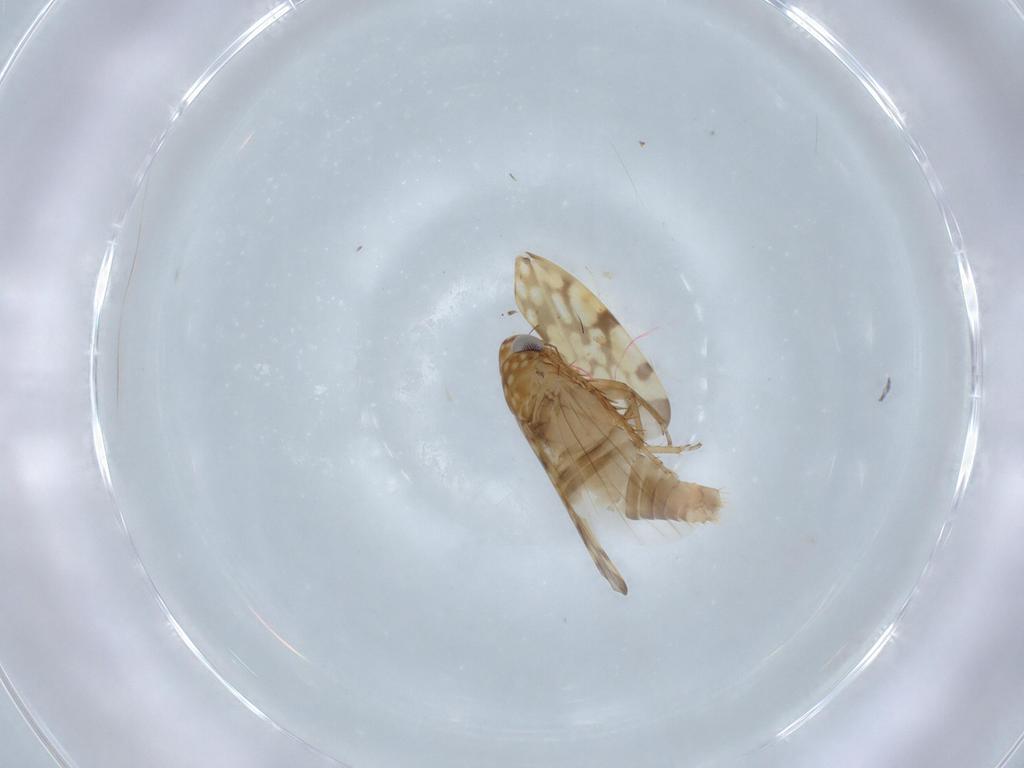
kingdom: Animalia
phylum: Arthropoda
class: Insecta
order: Hemiptera
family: Cicadellidae
